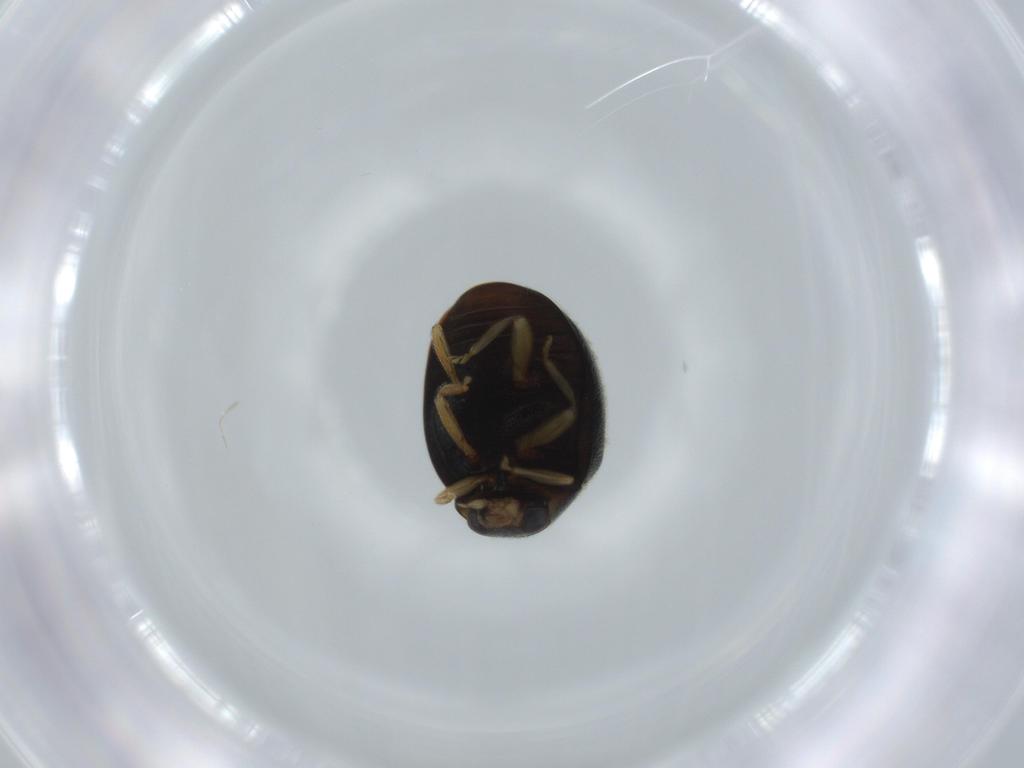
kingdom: Animalia
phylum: Arthropoda
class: Insecta
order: Coleoptera
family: Coccinellidae
